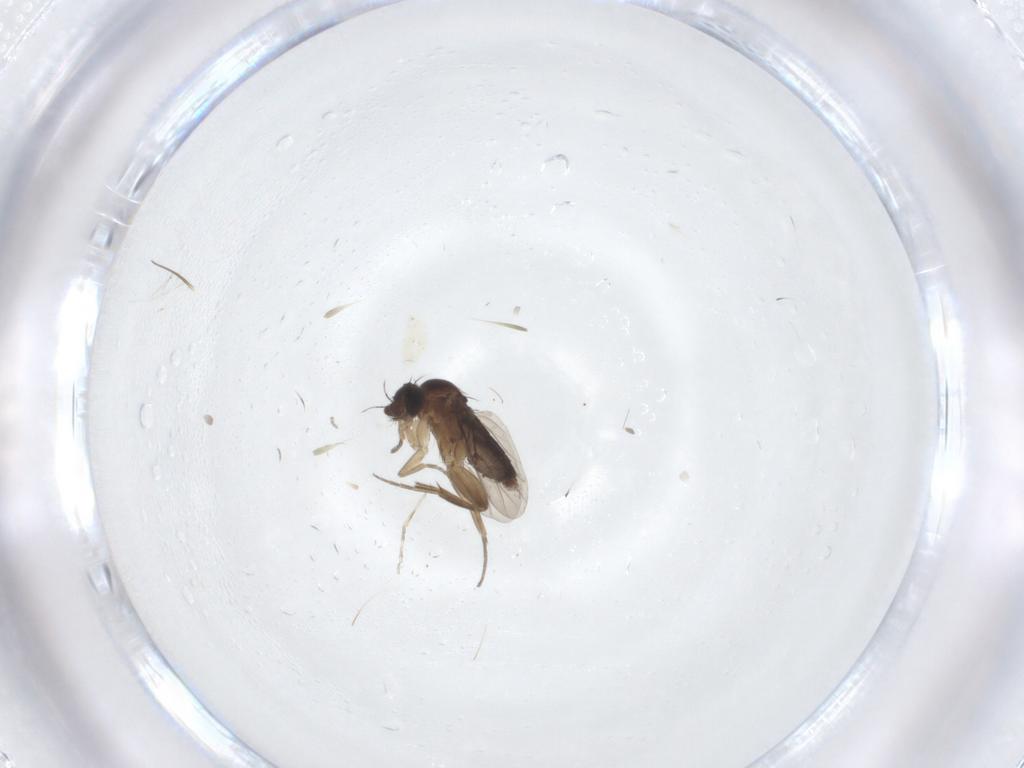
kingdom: Animalia
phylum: Arthropoda
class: Insecta
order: Diptera
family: Phoridae
